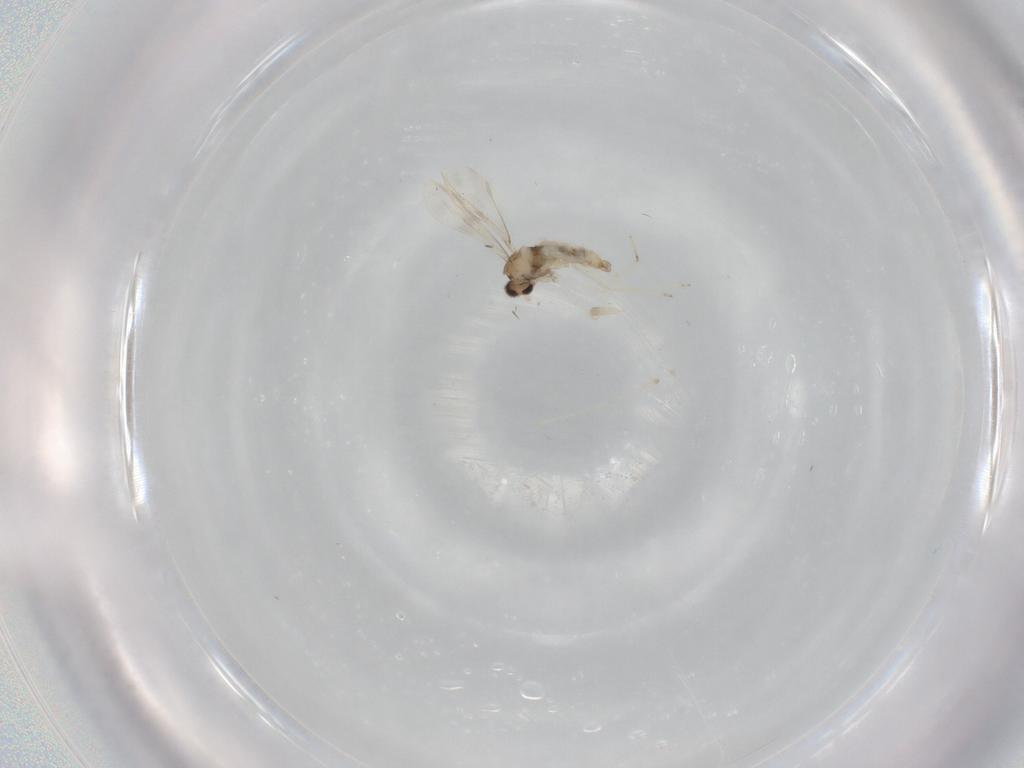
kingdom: Animalia
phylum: Arthropoda
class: Insecta
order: Diptera
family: Cecidomyiidae
